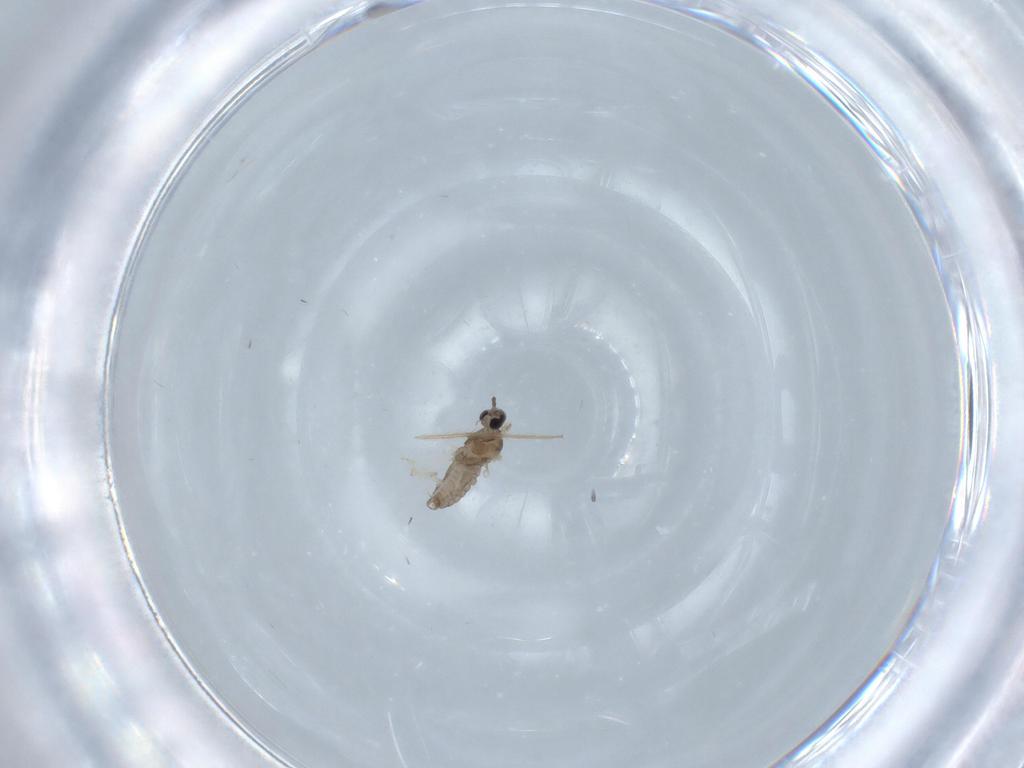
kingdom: Animalia
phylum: Arthropoda
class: Insecta
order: Diptera
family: Cecidomyiidae
